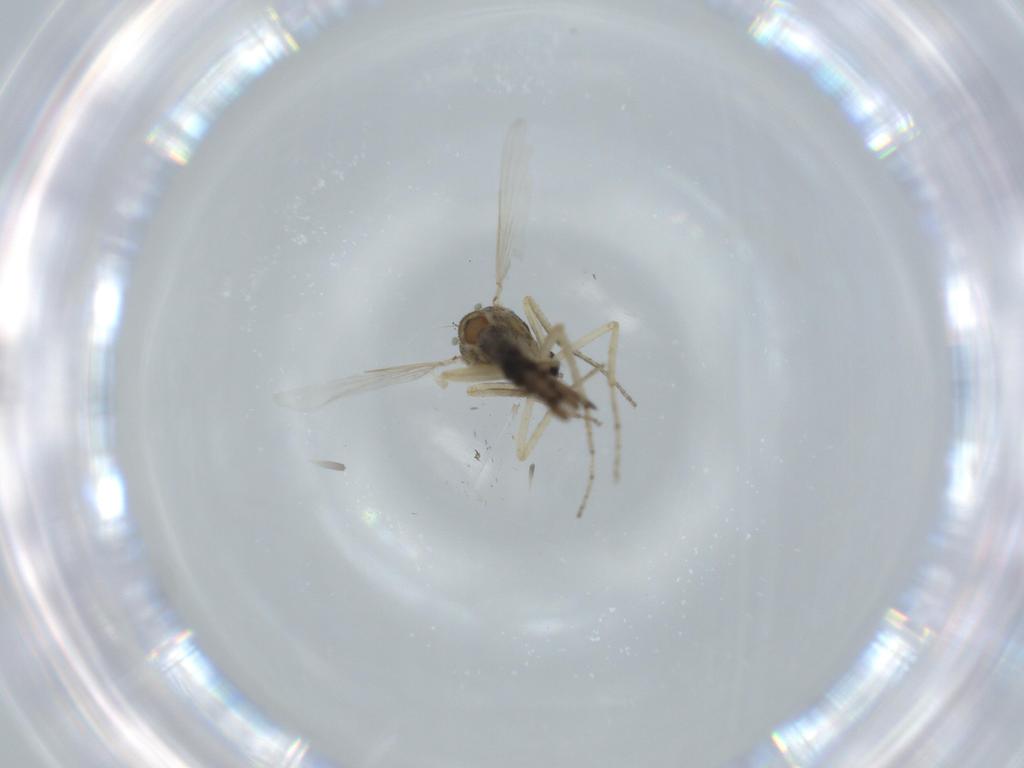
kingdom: Animalia
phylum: Arthropoda
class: Insecta
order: Diptera
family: Ceratopogonidae
